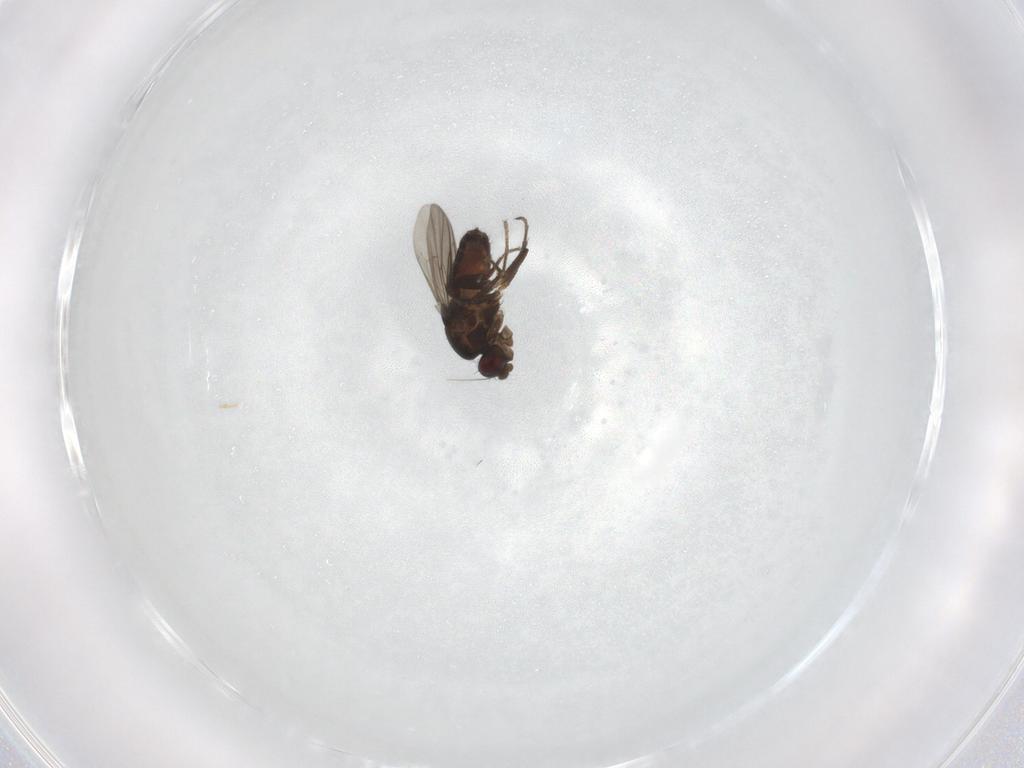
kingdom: Animalia
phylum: Arthropoda
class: Insecta
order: Diptera
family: Sphaeroceridae
